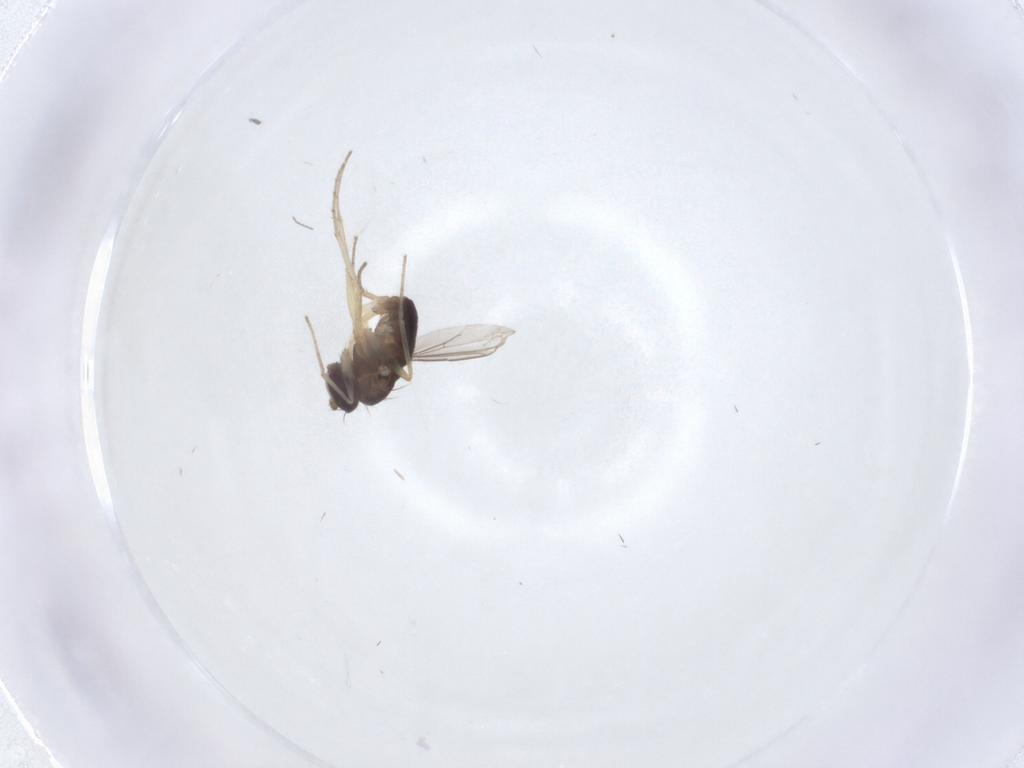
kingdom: Animalia
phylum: Arthropoda
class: Insecta
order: Diptera
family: Dolichopodidae
